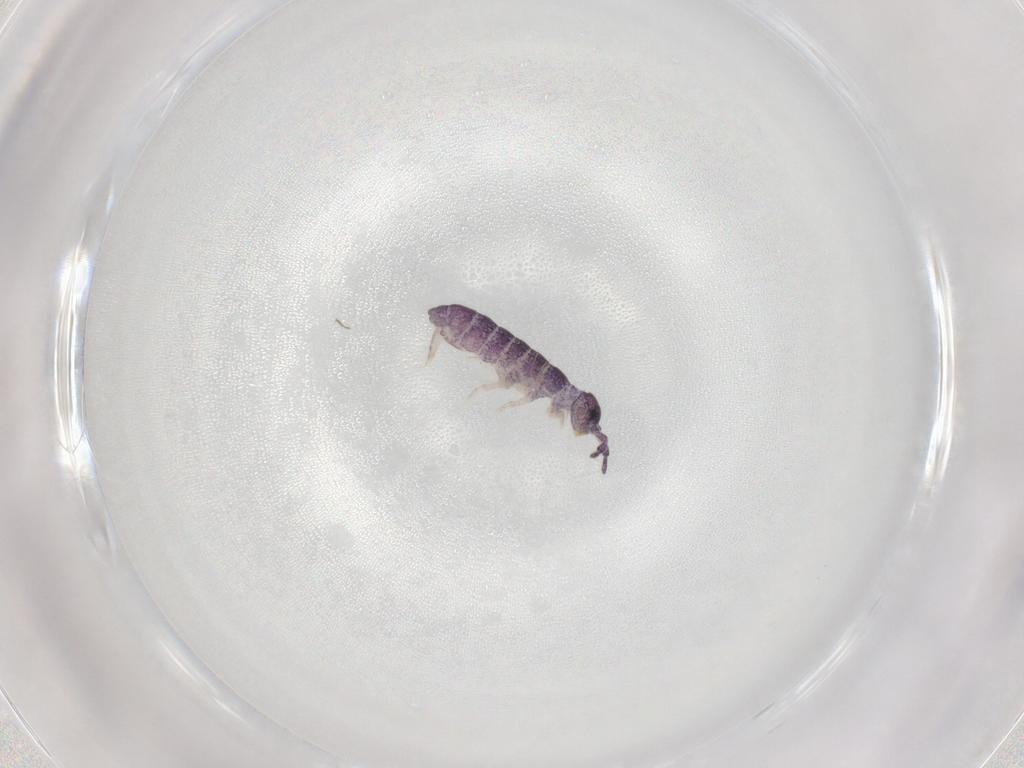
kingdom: Animalia
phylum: Arthropoda
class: Collembola
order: Entomobryomorpha
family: Isotomidae
